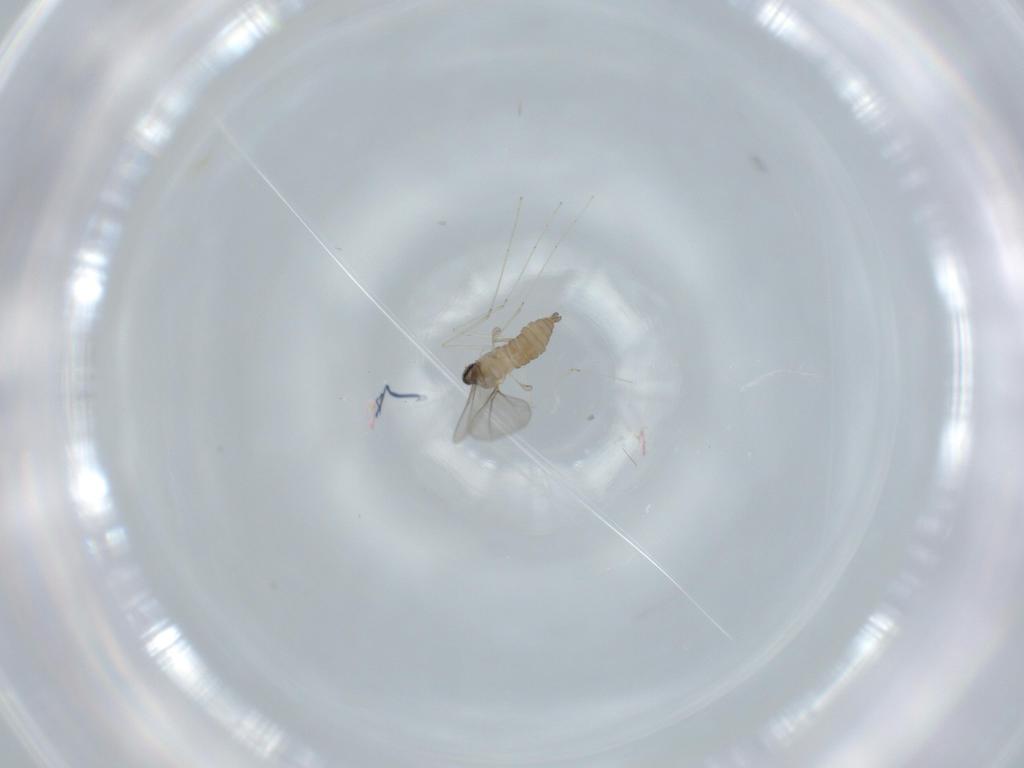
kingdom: Animalia
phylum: Arthropoda
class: Insecta
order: Diptera
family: Cecidomyiidae
